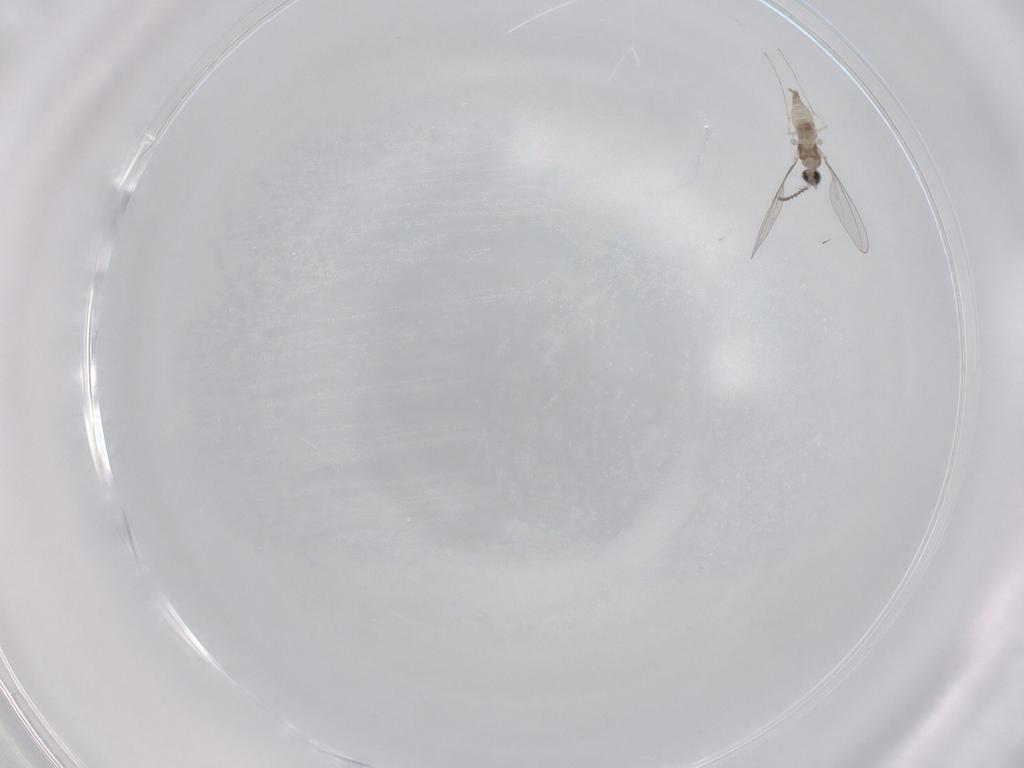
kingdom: Animalia
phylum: Arthropoda
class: Insecta
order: Diptera
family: Cecidomyiidae
